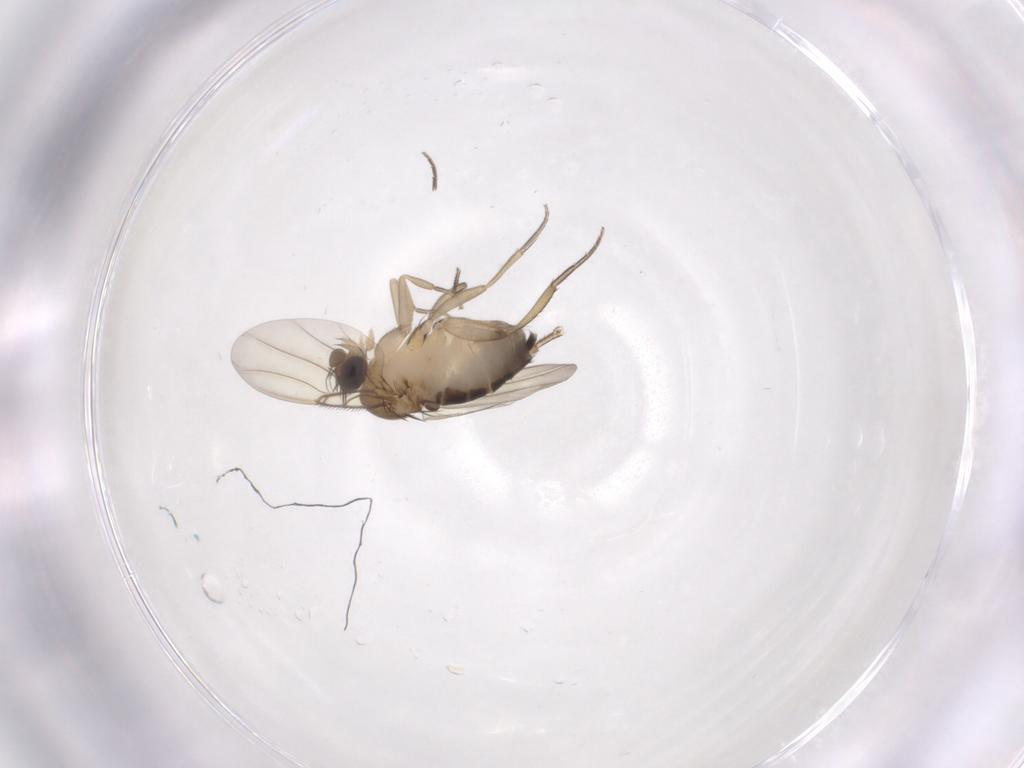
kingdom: Animalia
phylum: Arthropoda
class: Insecta
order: Diptera
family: Phoridae
